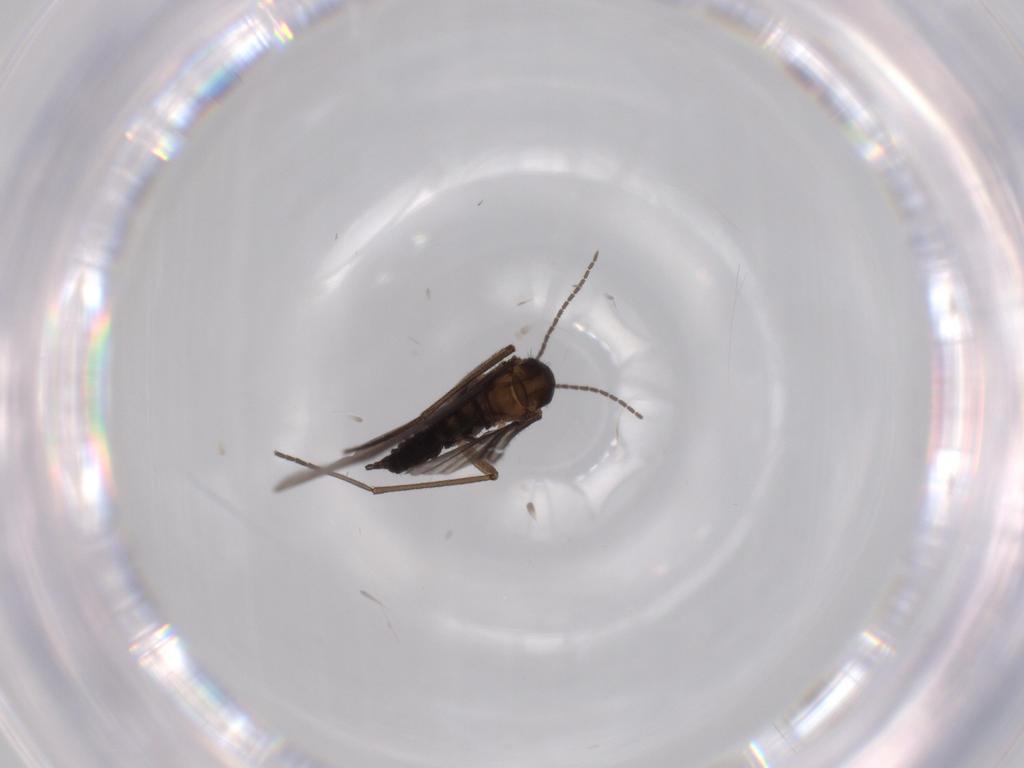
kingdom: Animalia
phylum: Arthropoda
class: Insecta
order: Diptera
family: Sciaridae
